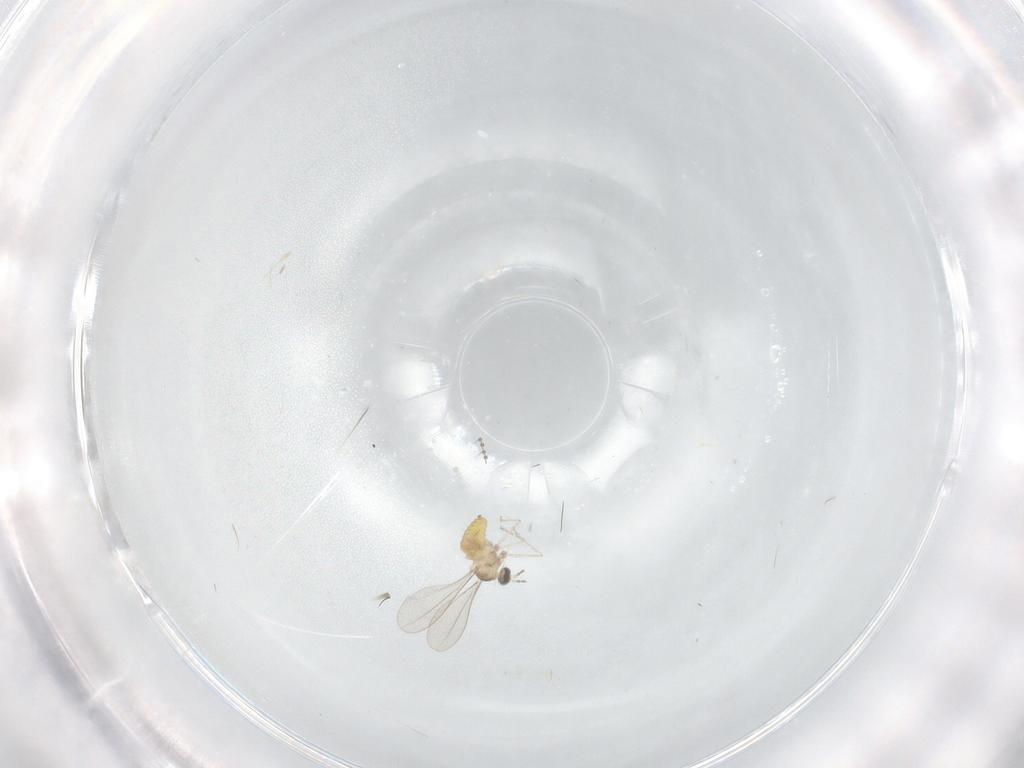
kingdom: Animalia
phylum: Arthropoda
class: Insecta
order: Diptera
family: Cecidomyiidae
